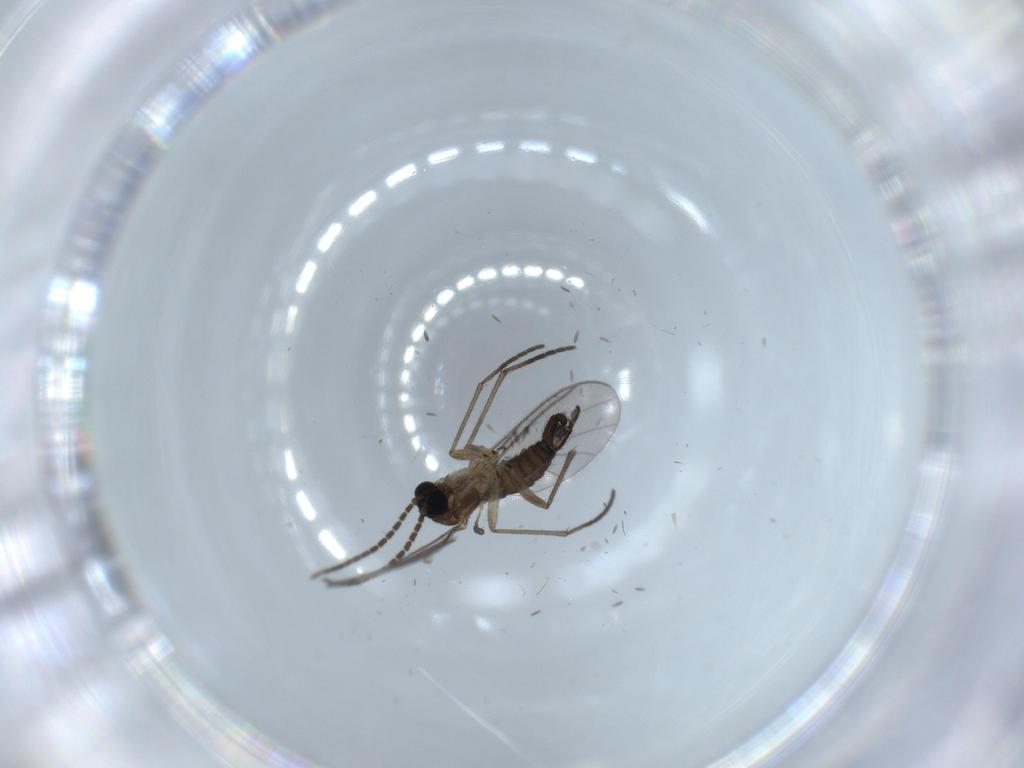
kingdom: Animalia
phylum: Arthropoda
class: Insecta
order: Diptera
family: Sciaridae
